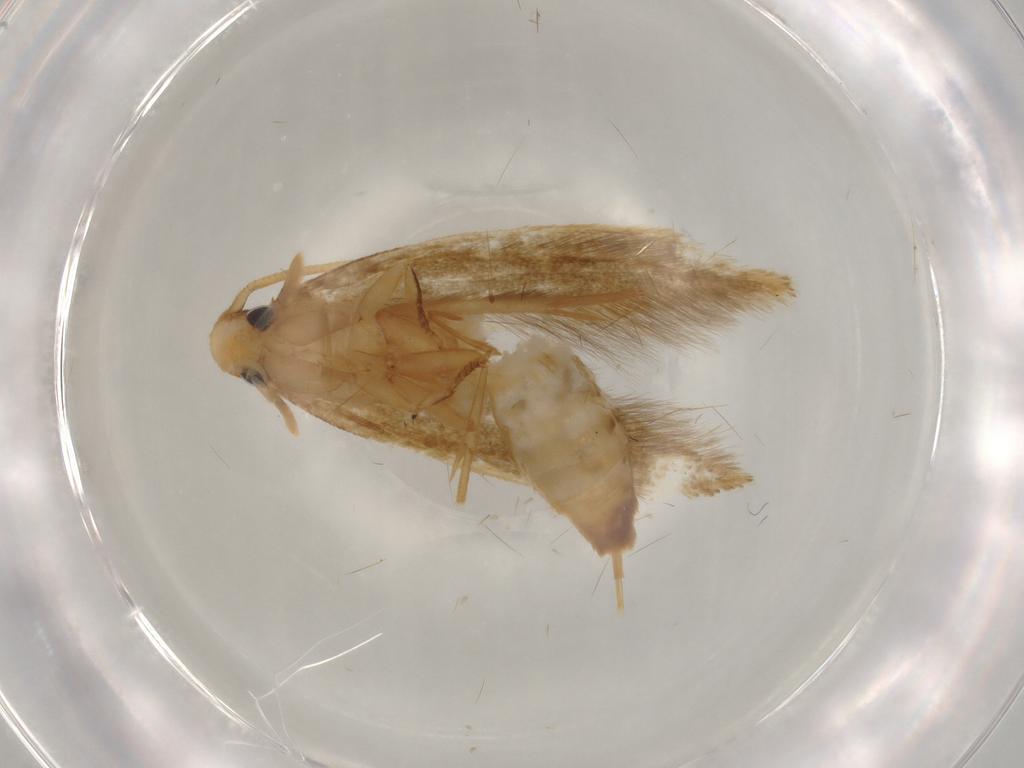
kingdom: Animalia
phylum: Arthropoda
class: Insecta
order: Lepidoptera
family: Tineidae
